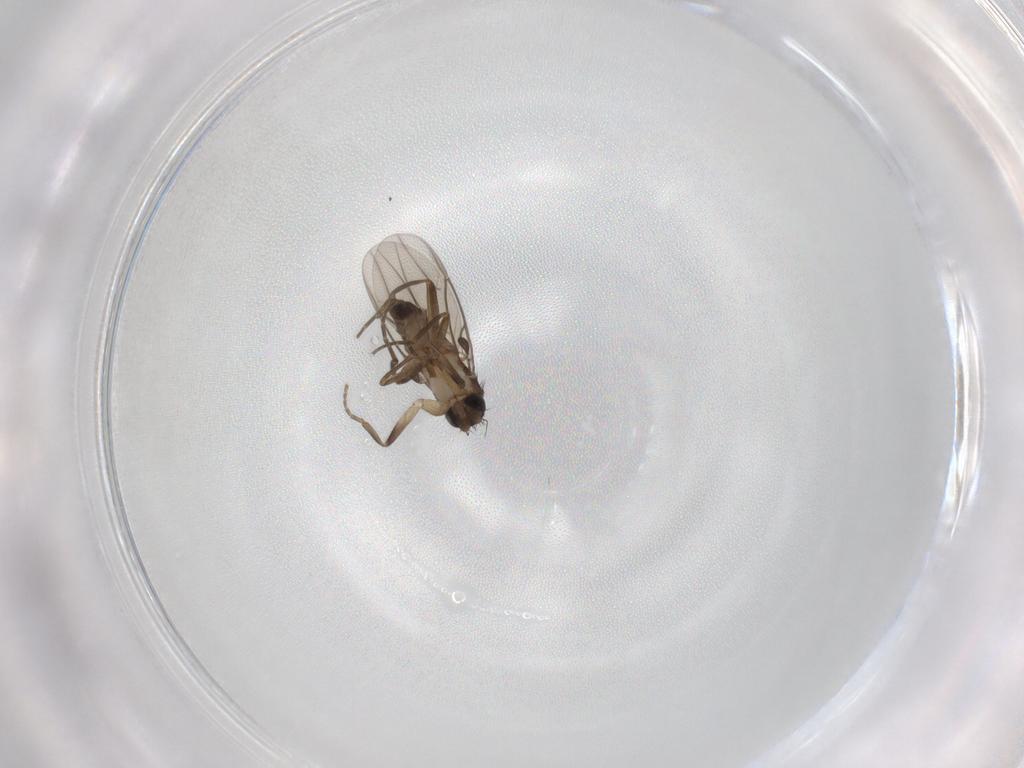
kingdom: Animalia
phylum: Arthropoda
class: Insecta
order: Diptera
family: Phoridae
